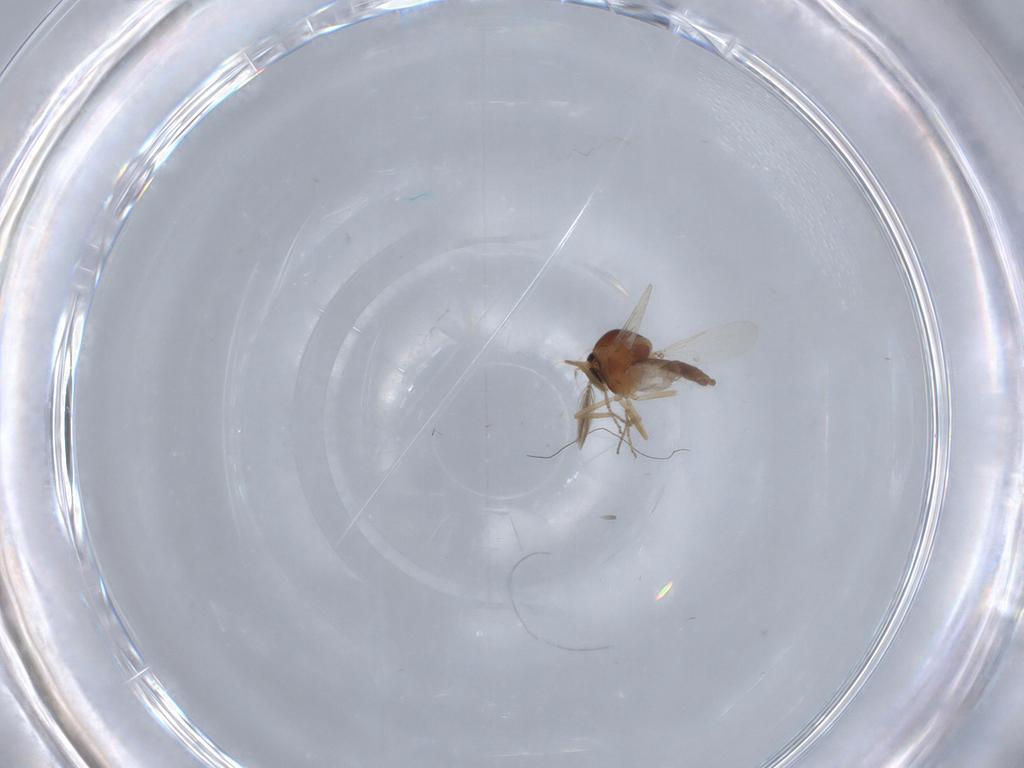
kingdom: Animalia
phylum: Arthropoda
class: Insecta
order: Diptera
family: Ceratopogonidae
